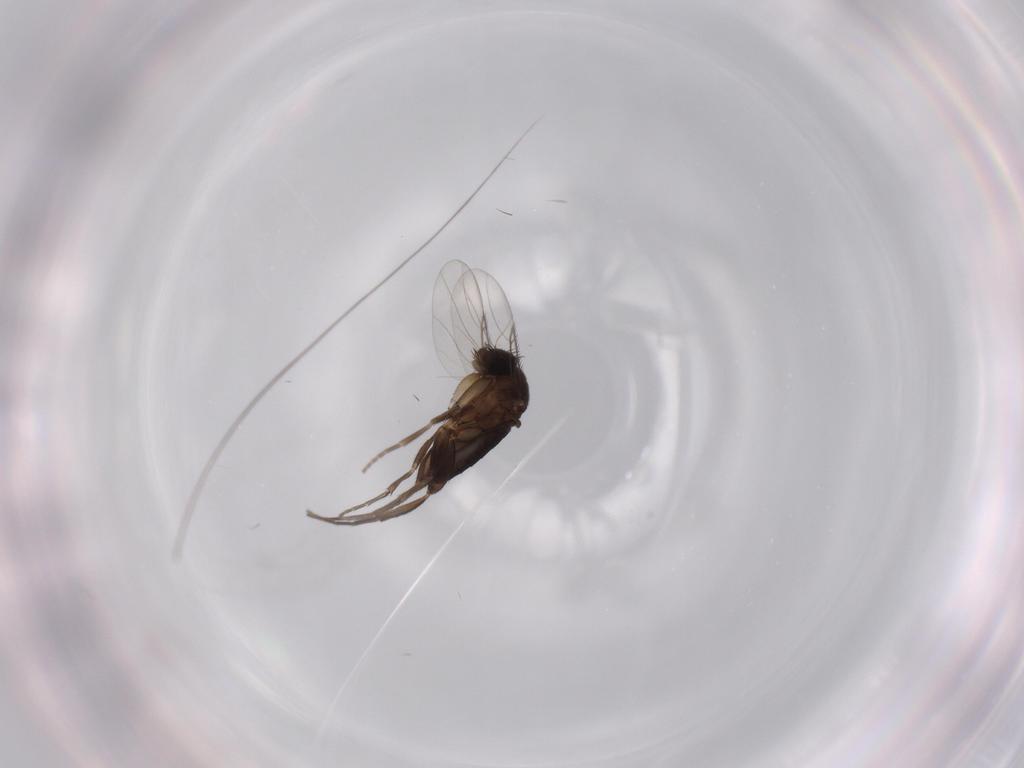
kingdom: Animalia
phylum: Arthropoda
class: Insecta
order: Diptera
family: Phoridae
